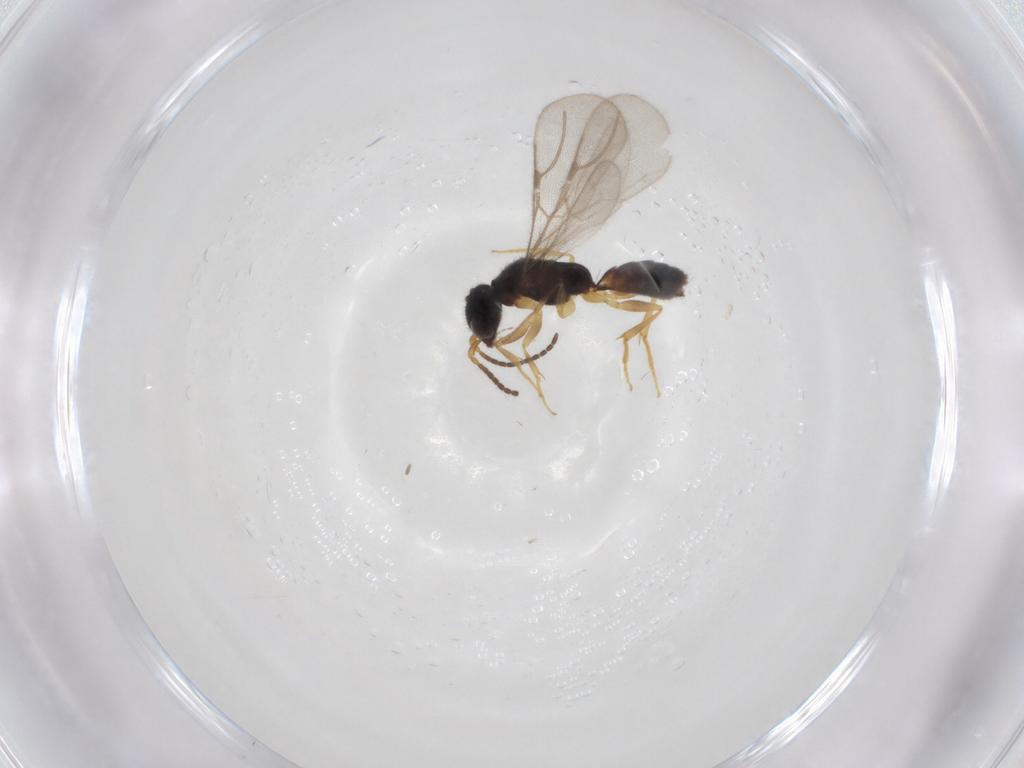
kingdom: Animalia
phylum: Arthropoda
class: Insecta
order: Hymenoptera
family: Bethylidae
